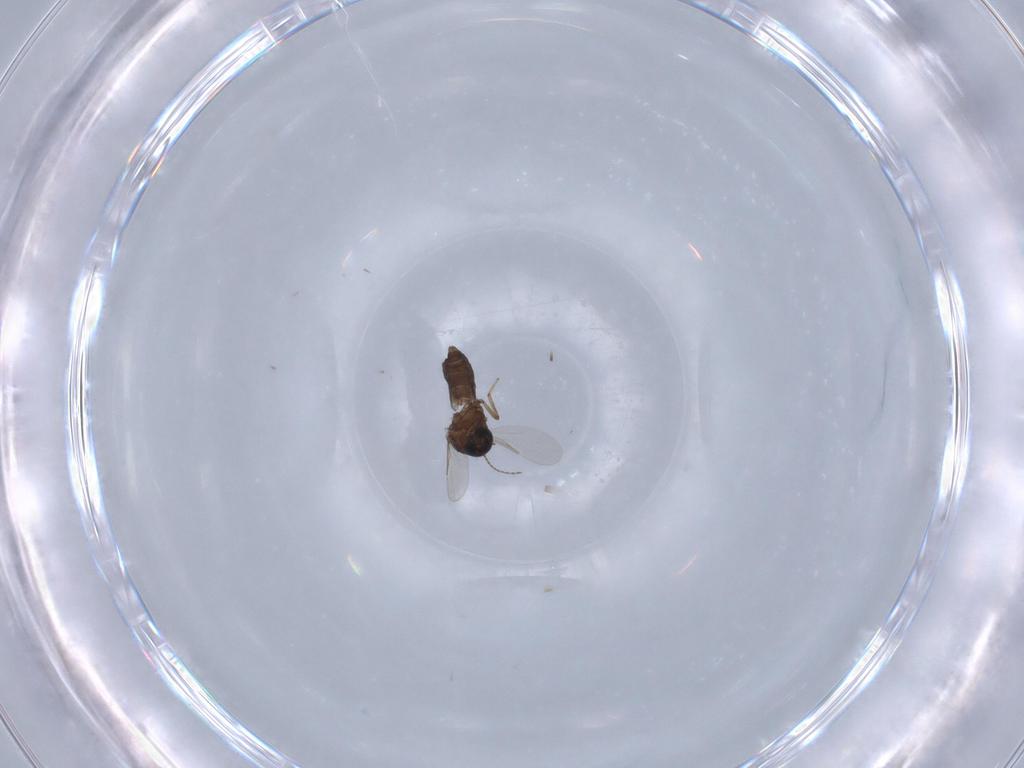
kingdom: Animalia
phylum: Arthropoda
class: Insecta
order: Diptera
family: Ceratopogonidae
